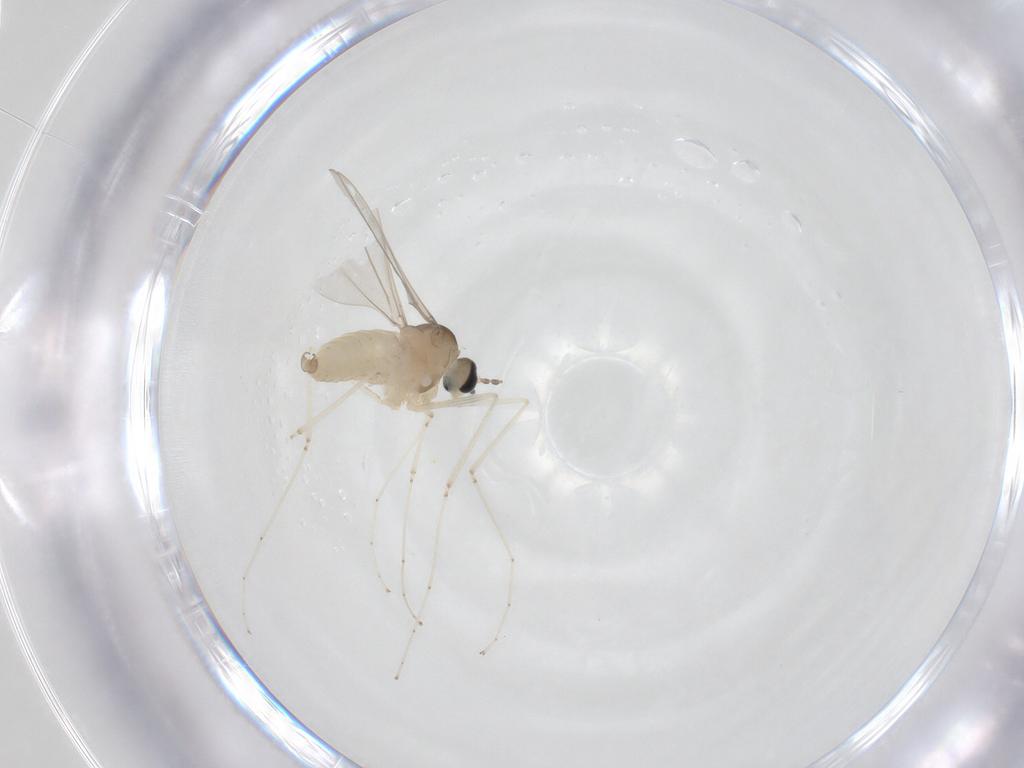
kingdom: Animalia
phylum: Arthropoda
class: Insecta
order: Diptera
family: Cecidomyiidae
